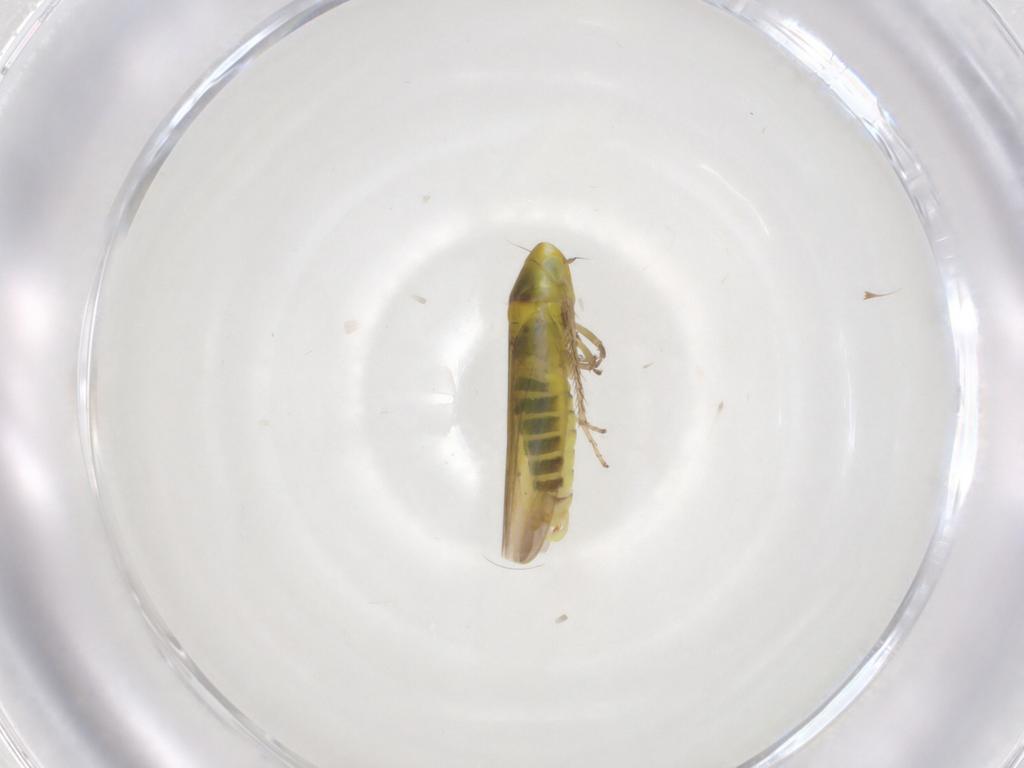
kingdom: Animalia
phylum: Arthropoda
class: Insecta
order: Hemiptera
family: Cicadellidae
